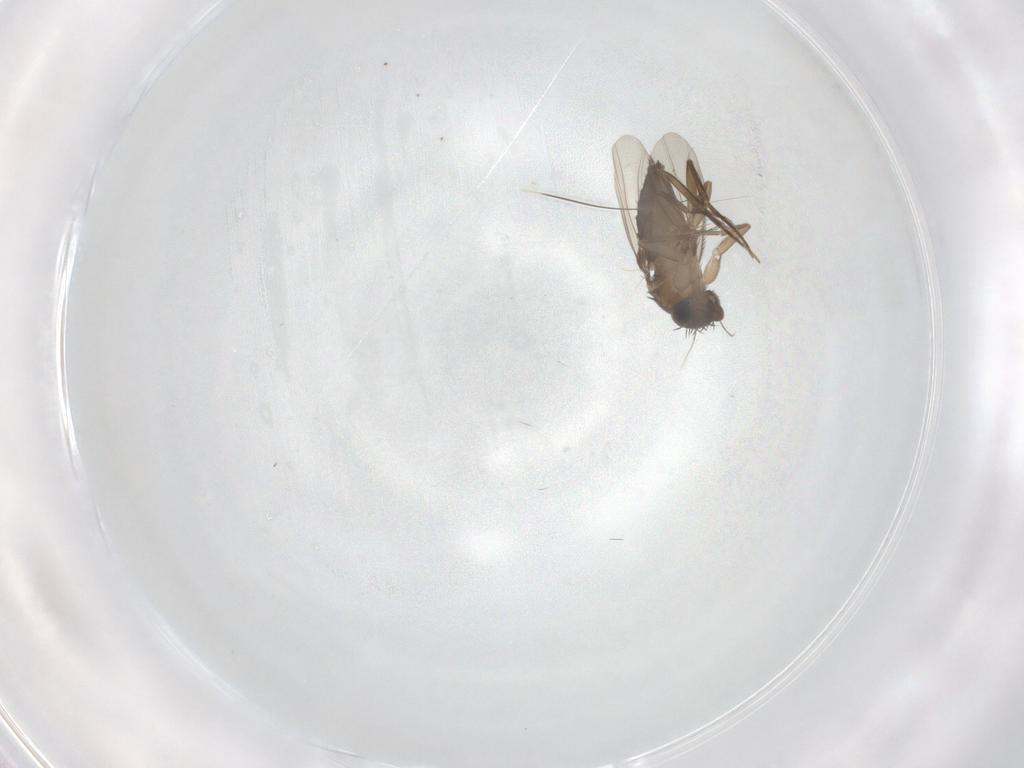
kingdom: Animalia
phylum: Arthropoda
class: Insecta
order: Diptera
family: Phoridae
